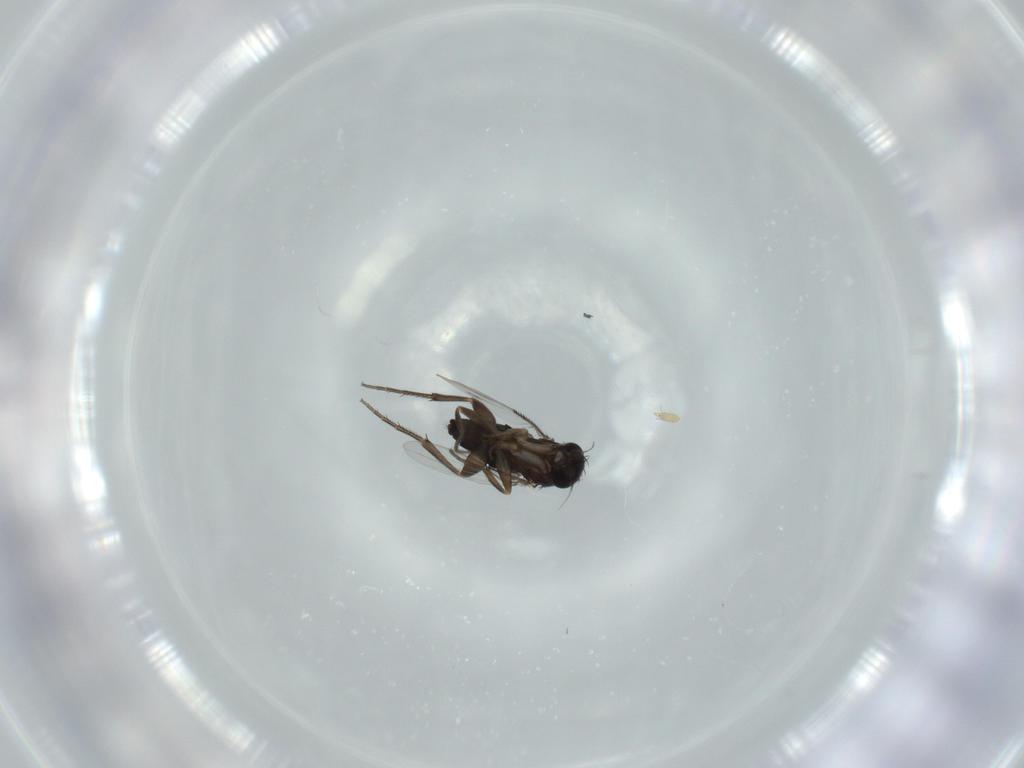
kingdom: Animalia
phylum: Arthropoda
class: Insecta
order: Diptera
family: Phoridae
